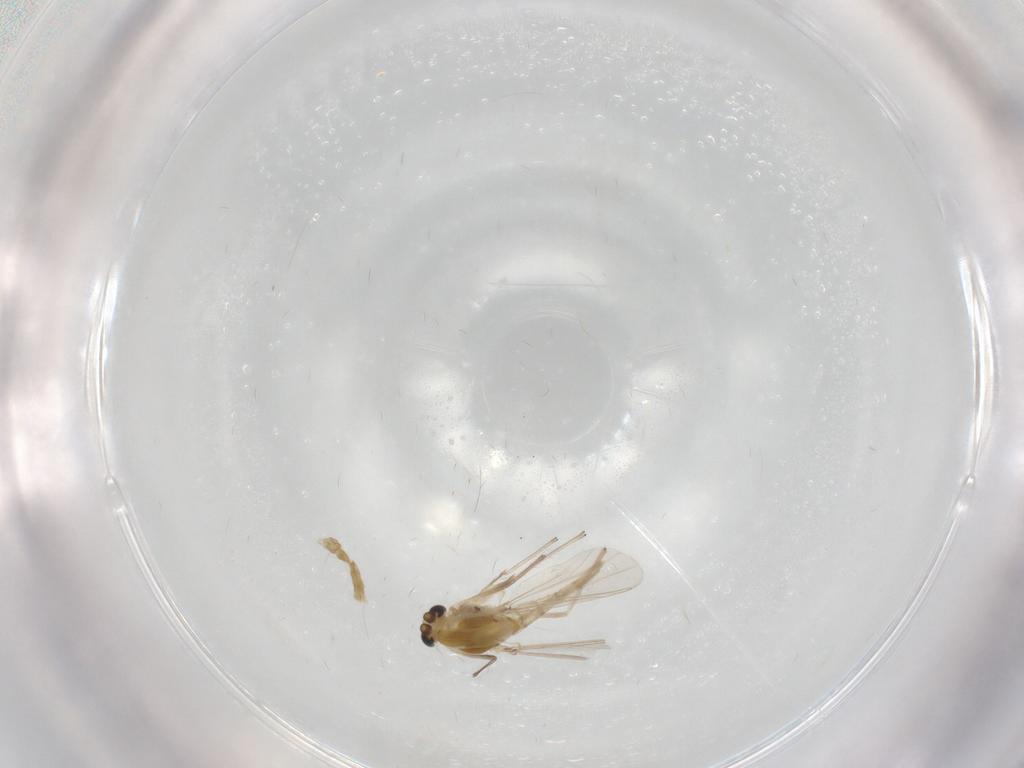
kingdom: Animalia
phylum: Arthropoda
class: Insecta
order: Diptera
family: Chironomidae
